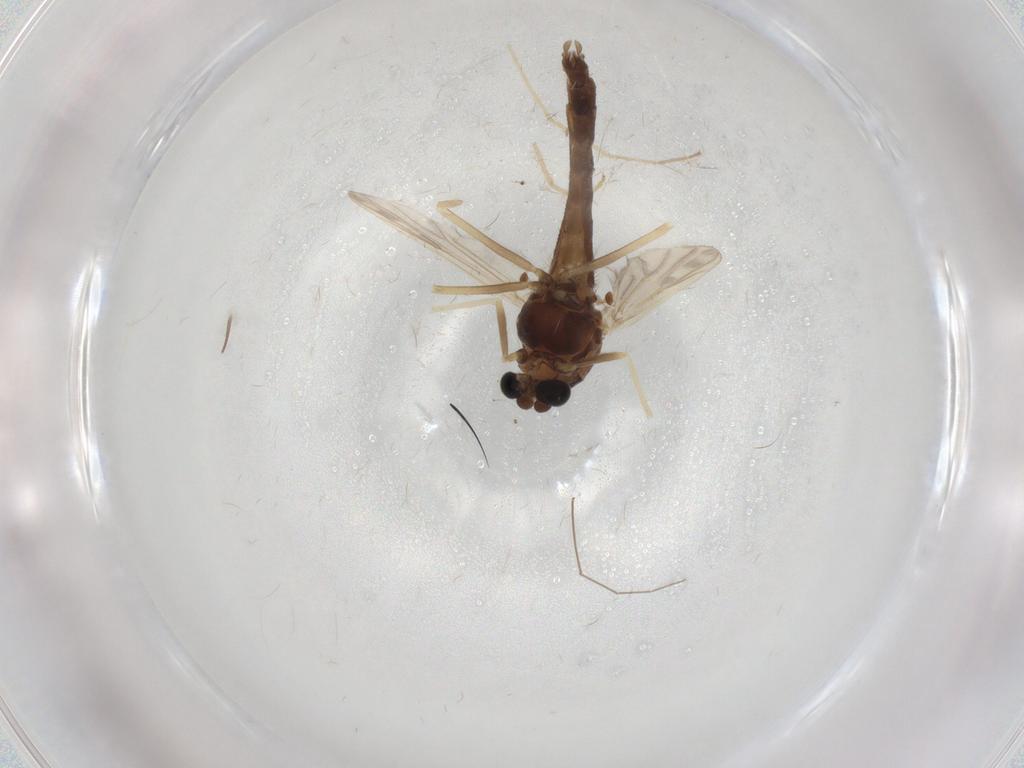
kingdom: Animalia
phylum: Arthropoda
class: Insecta
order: Diptera
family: Chironomidae
